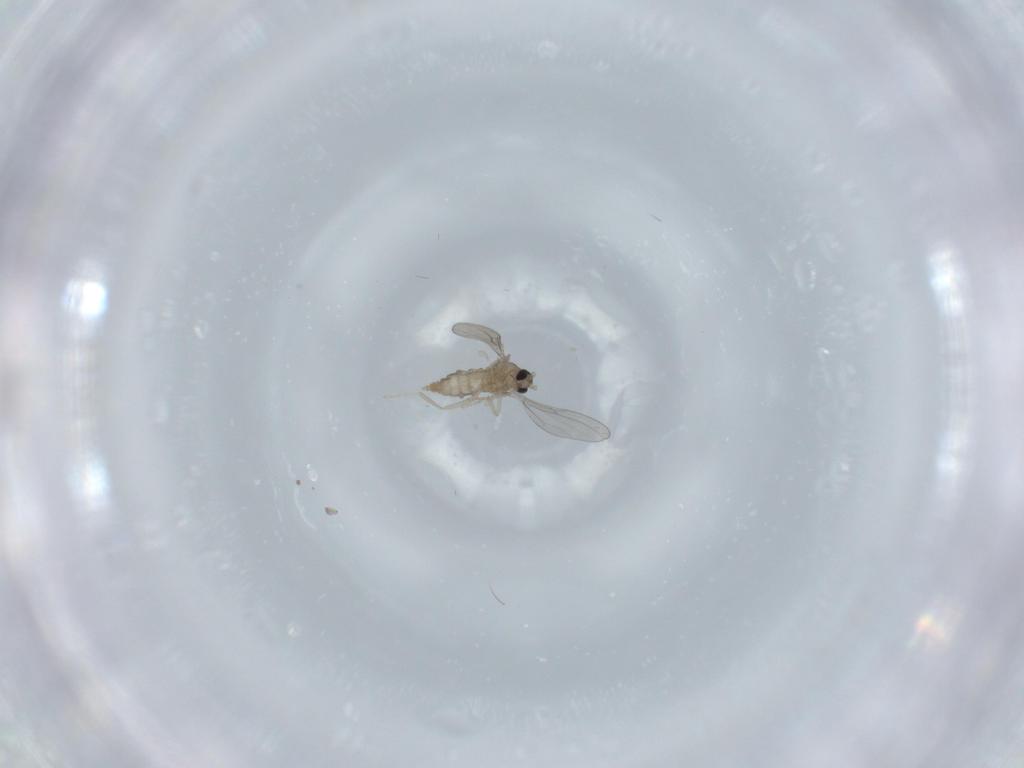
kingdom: Animalia
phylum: Arthropoda
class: Insecta
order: Diptera
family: Cecidomyiidae
